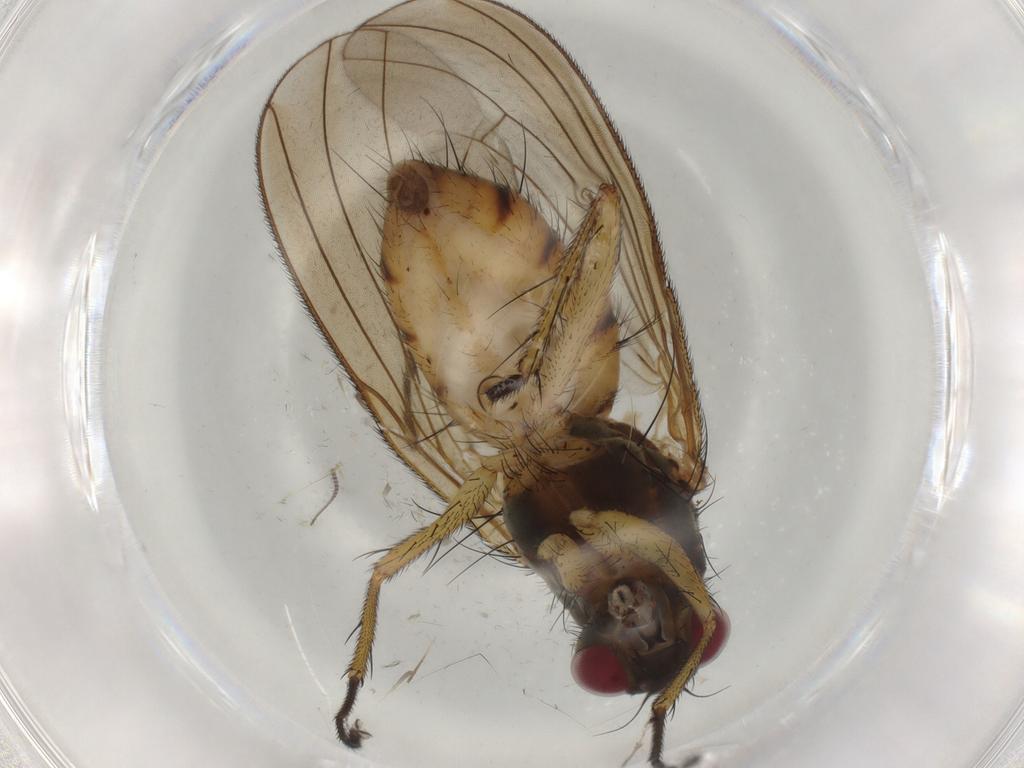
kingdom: Animalia
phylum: Arthropoda
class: Insecta
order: Diptera
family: Muscidae
